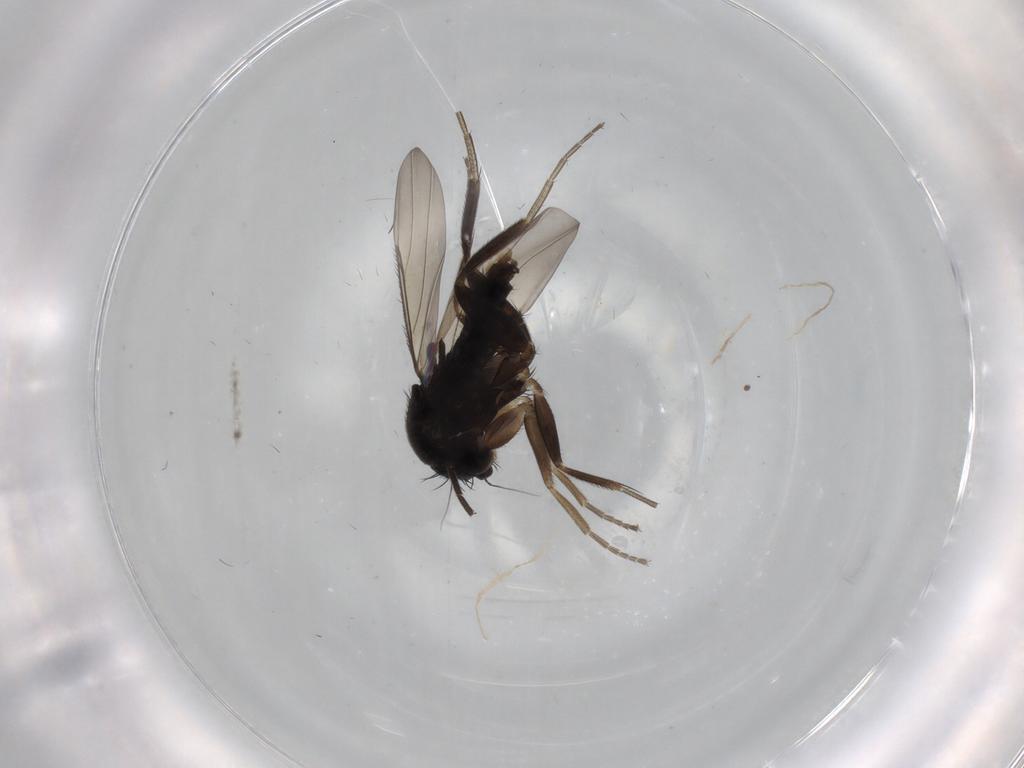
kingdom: Animalia
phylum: Arthropoda
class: Insecta
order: Diptera
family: Phoridae
